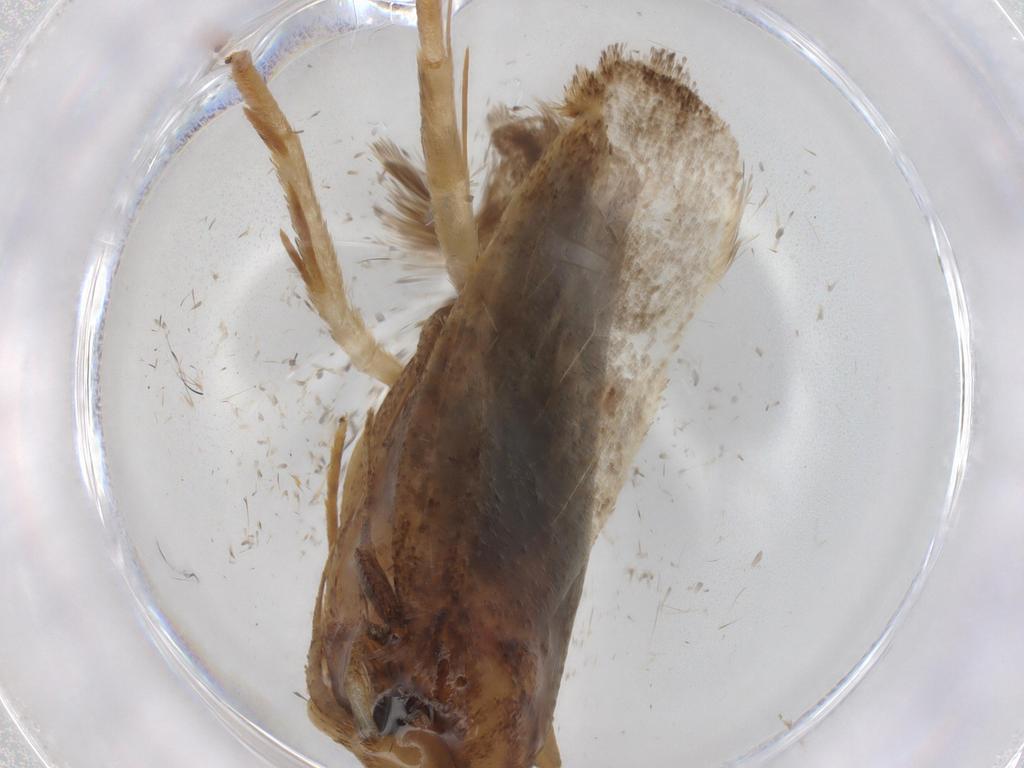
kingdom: Animalia
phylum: Arthropoda
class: Insecta
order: Lepidoptera
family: Autostichidae
